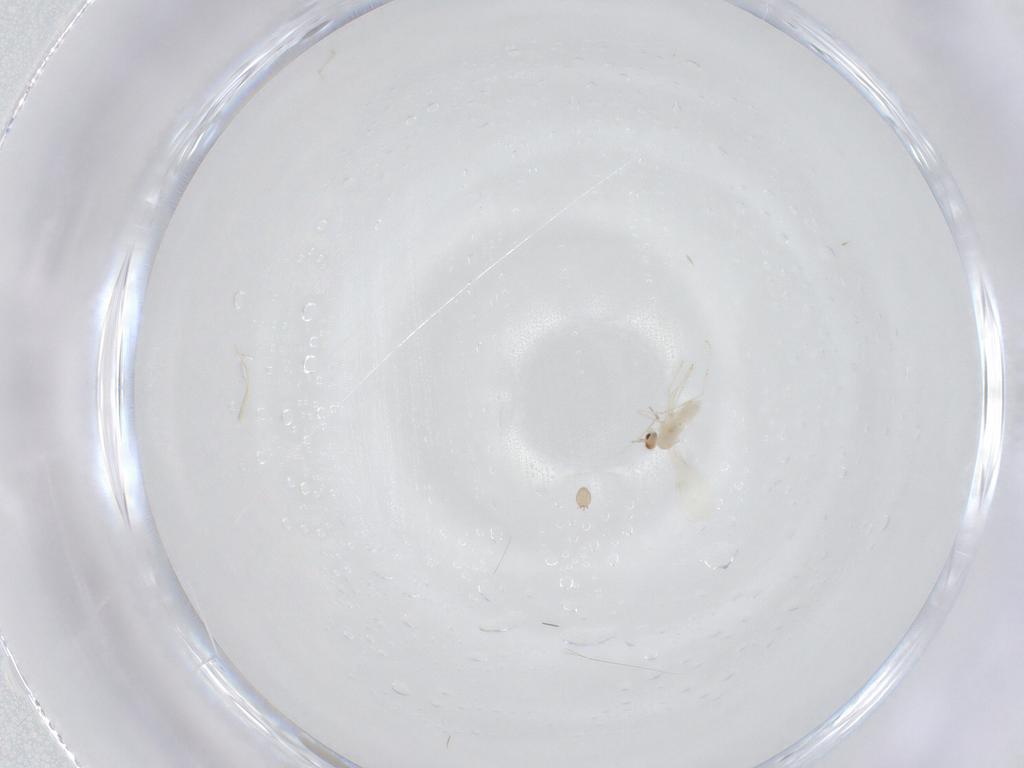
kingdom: Animalia
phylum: Arthropoda
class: Insecta
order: Diptera
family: Cecidomyiidae
